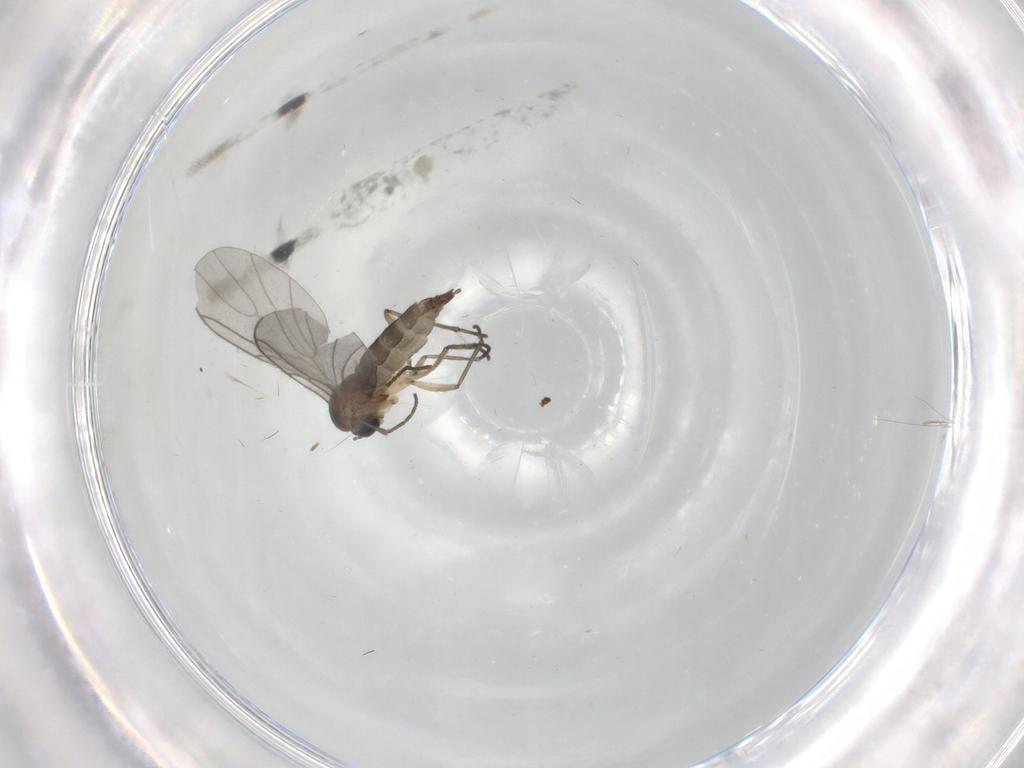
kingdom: Animalia
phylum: Arthropoda
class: Insecta
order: Diptera
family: Sciaridae
